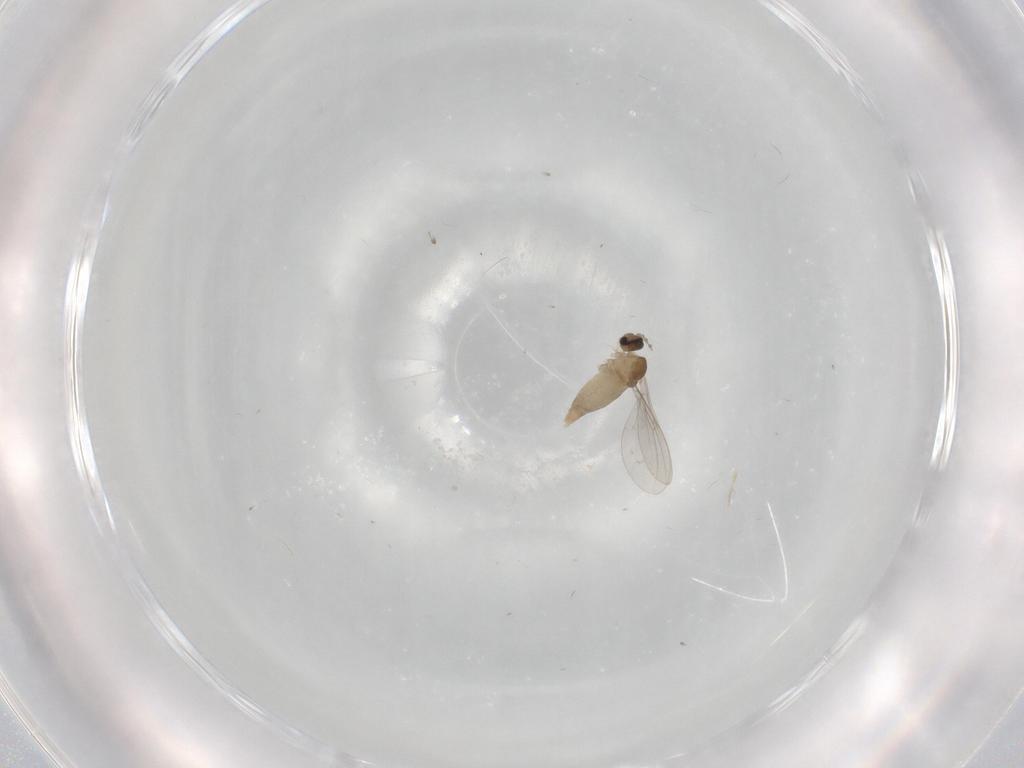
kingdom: Animalia
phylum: Arthropoda
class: Insecta
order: Diptera
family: Cecidomyiidae
